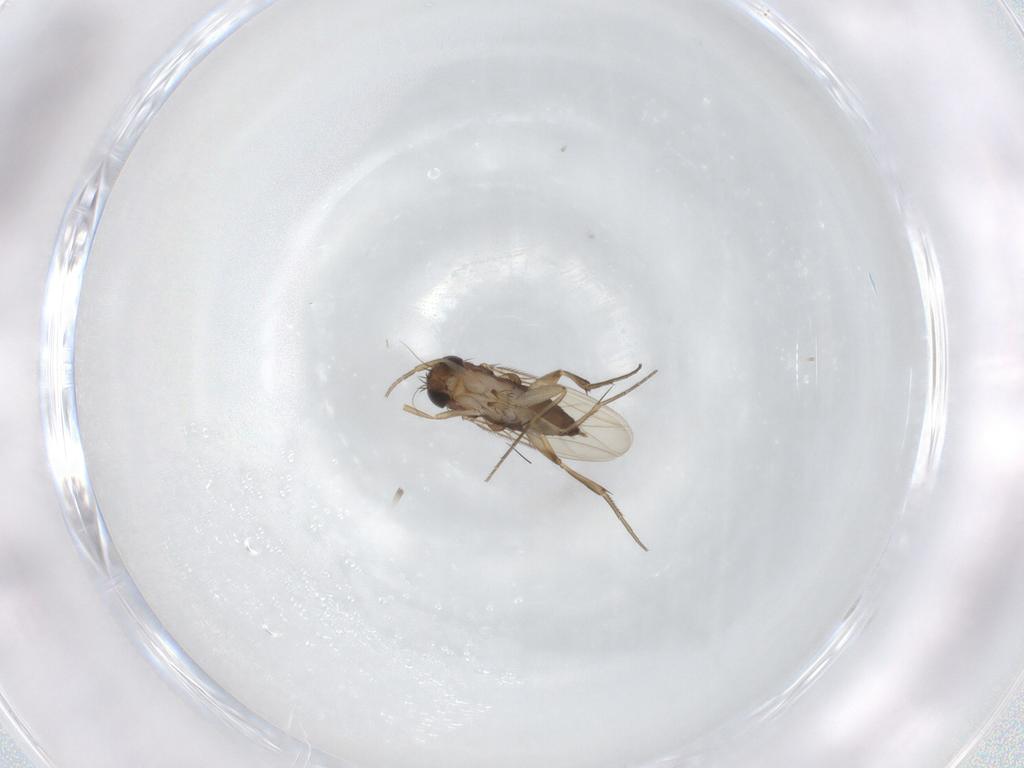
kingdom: Animalia
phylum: Arthropoda
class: Insecta
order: Diptera
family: Phoridae
